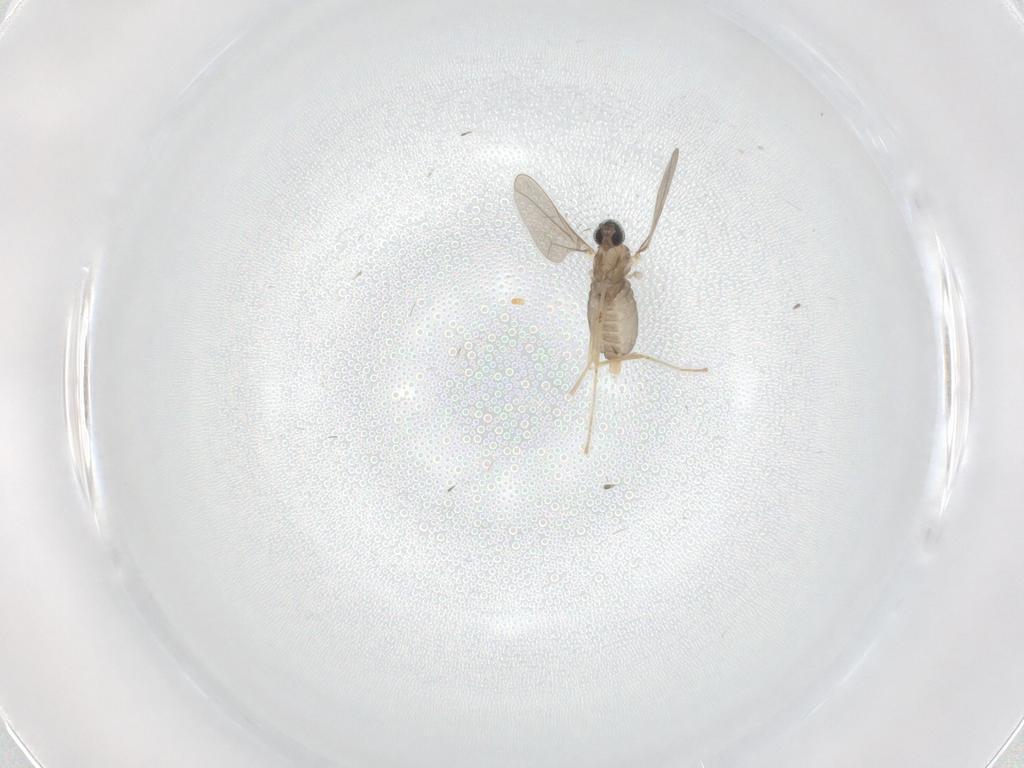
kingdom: Animalia
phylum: Arthropoda
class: Insecta
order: Diptera
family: Cecidomyiidae
